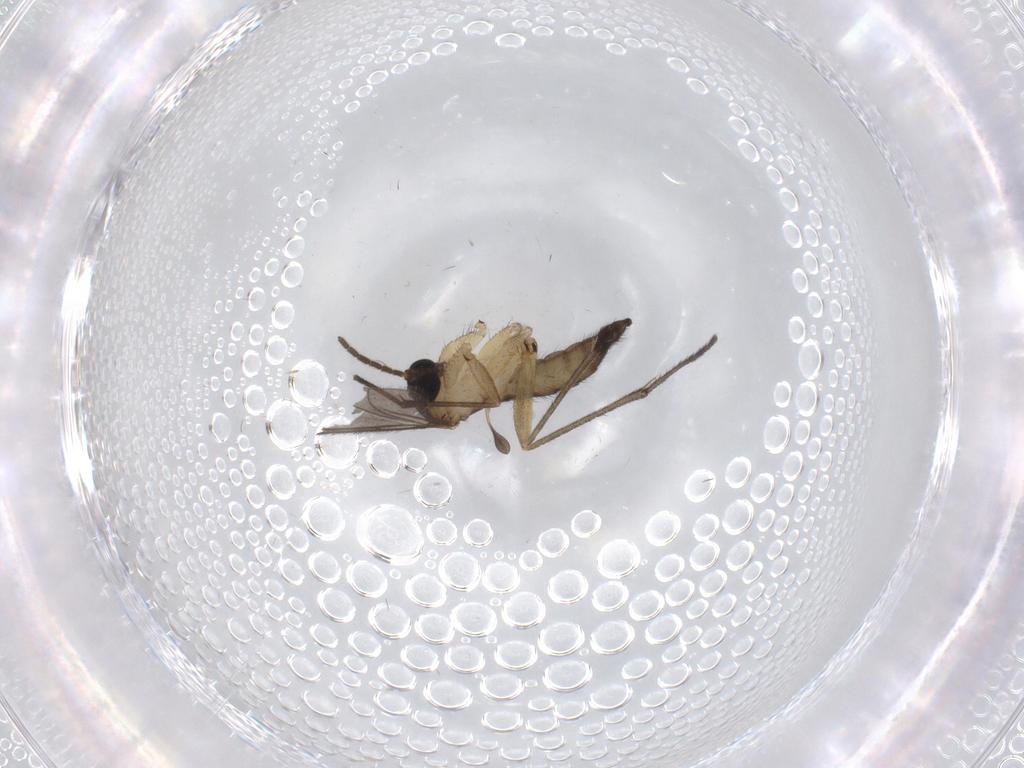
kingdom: Animalia
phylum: Arthropoda
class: Insecta
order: Diptera
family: Sciaridae
